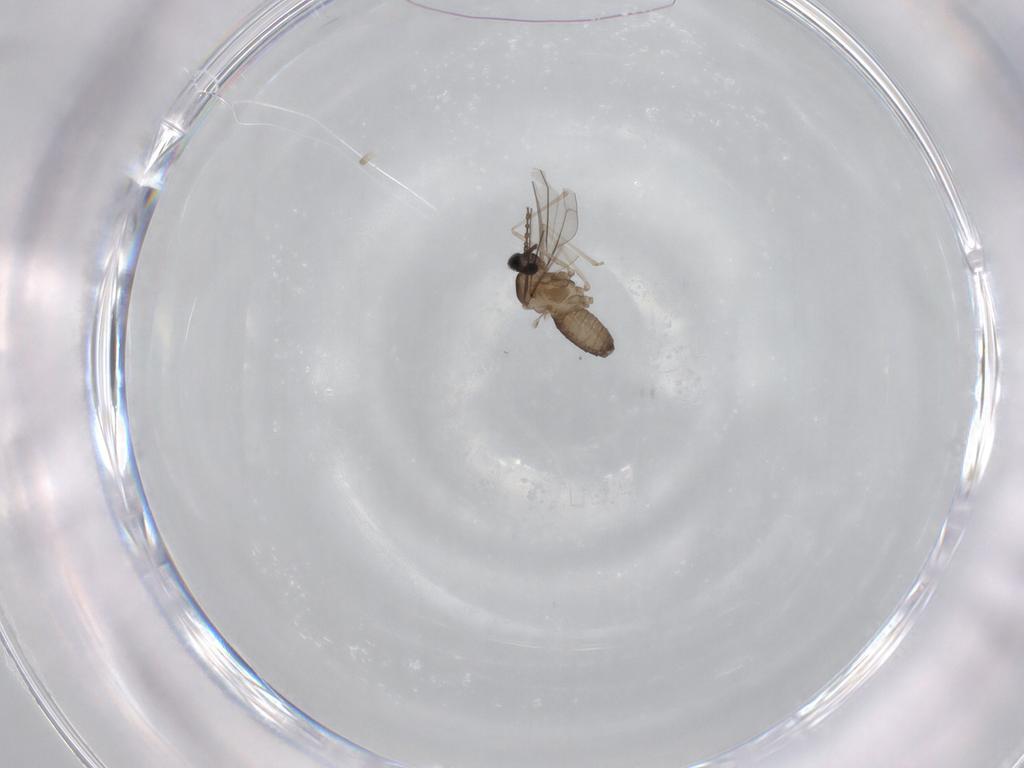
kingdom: Animalia
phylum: Arthropoda
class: Insecta
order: Diptera
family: Cecidomyiidae
